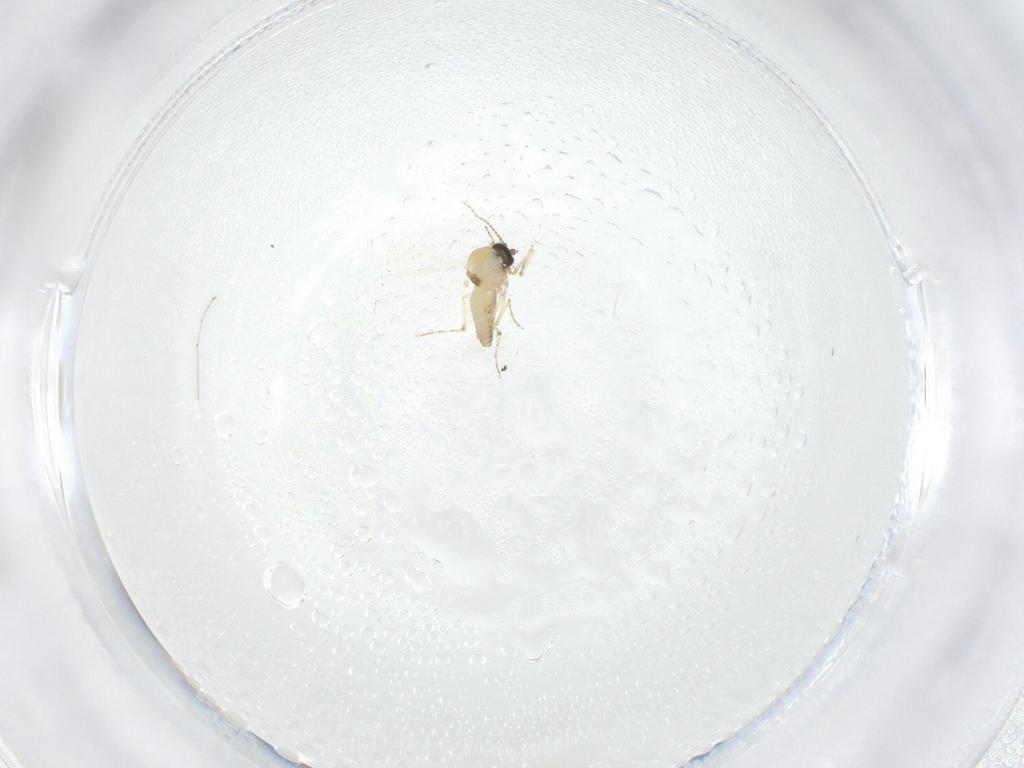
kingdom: Animalia
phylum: Arthropoda
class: Insecta
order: Diptera
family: Ceratopogonidae
